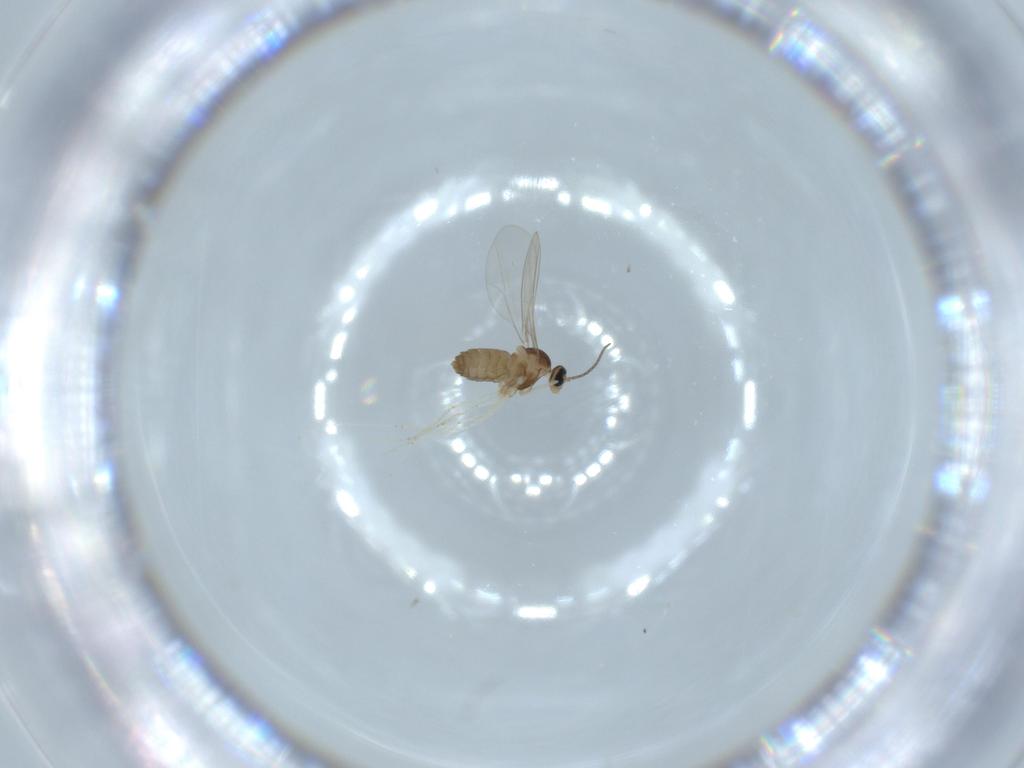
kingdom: Animalia
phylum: Arthropoda
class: Insecta
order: Diptera
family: Cecidomyiidae
